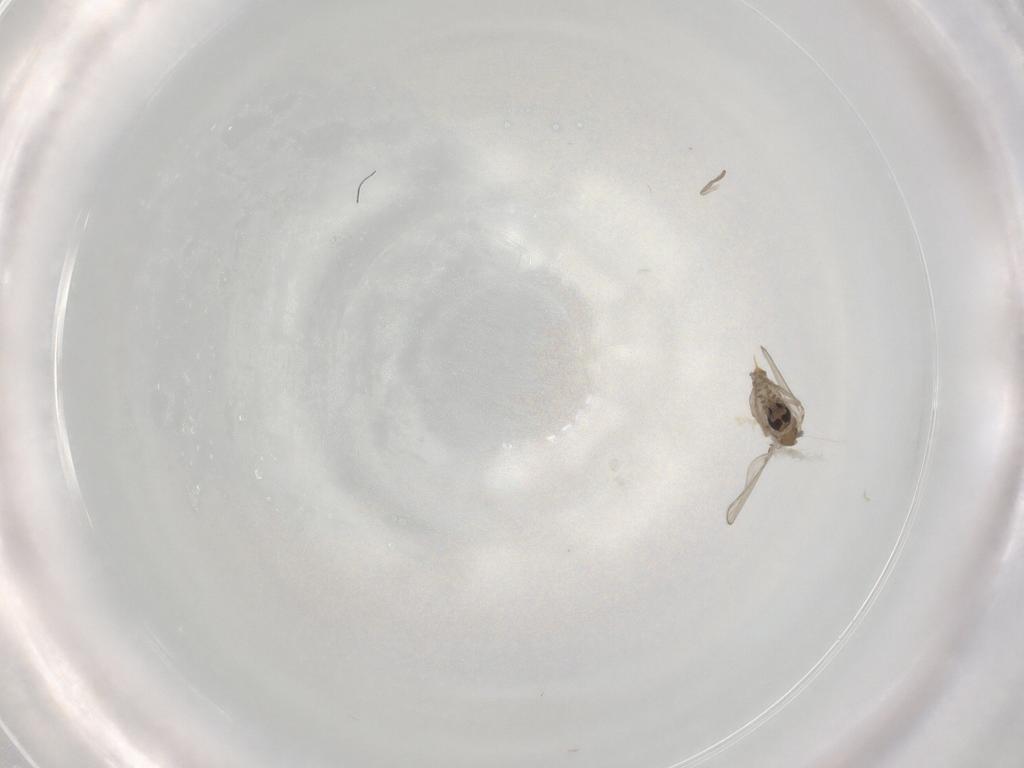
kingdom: Animalia
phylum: Arthropoda
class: Insecta
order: Diptera
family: Psychodidae
